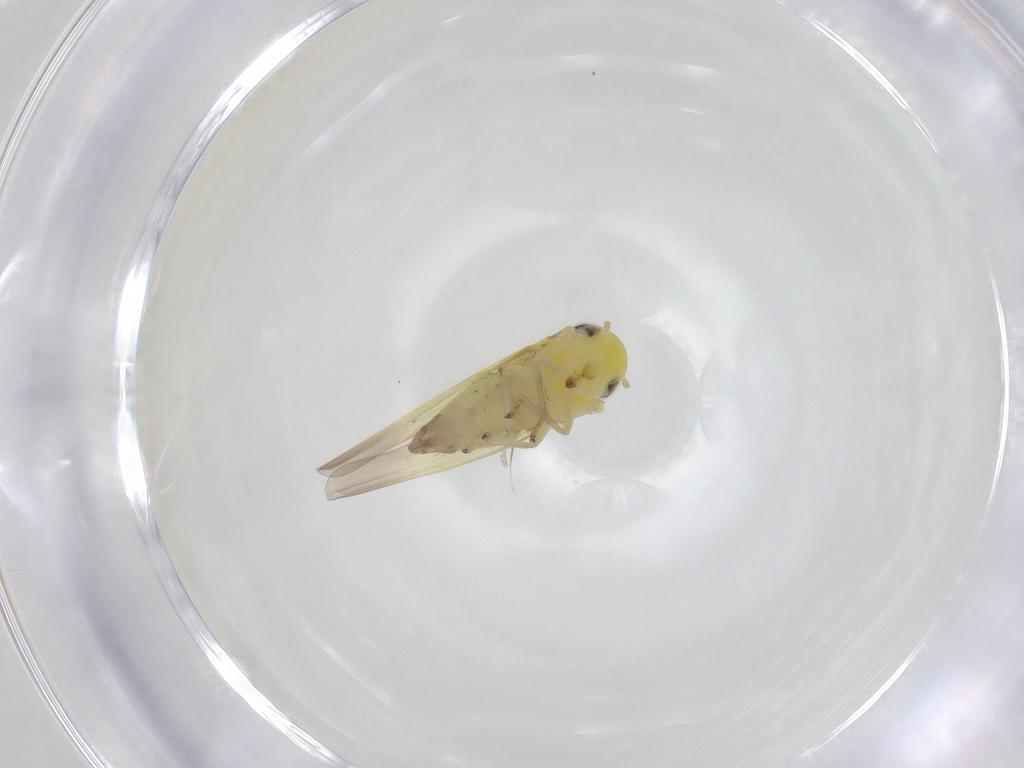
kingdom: Animalia
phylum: Arthropoda
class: Insecta
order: Hemiptera
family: Cicadellidae
